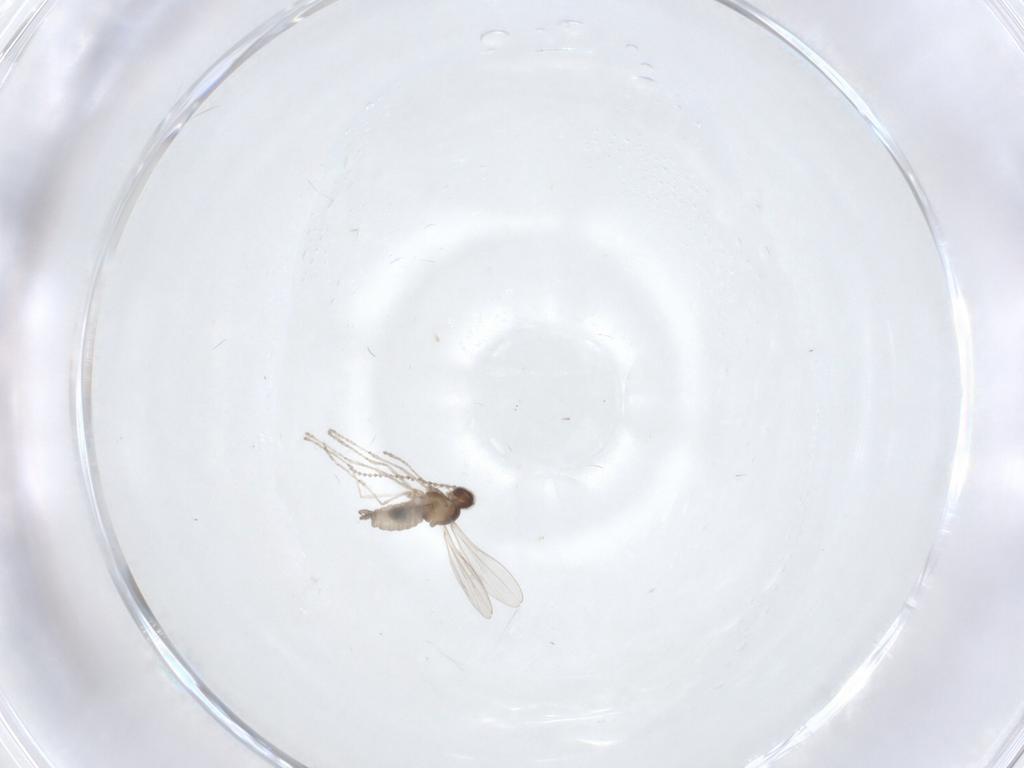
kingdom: Animalia
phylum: Arthropoda
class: Insecta
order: Diptera
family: Cecidomyiidae
